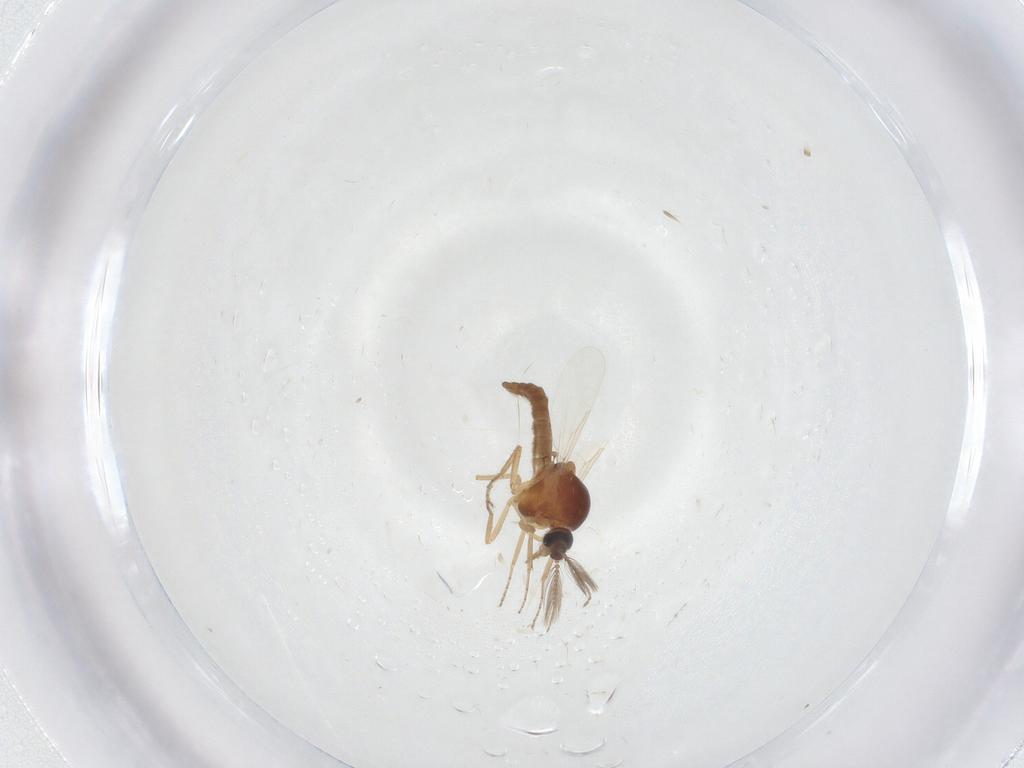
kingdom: Animalia
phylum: Arthropoda
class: Insecta
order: Diptera
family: Ceratopogonidae
